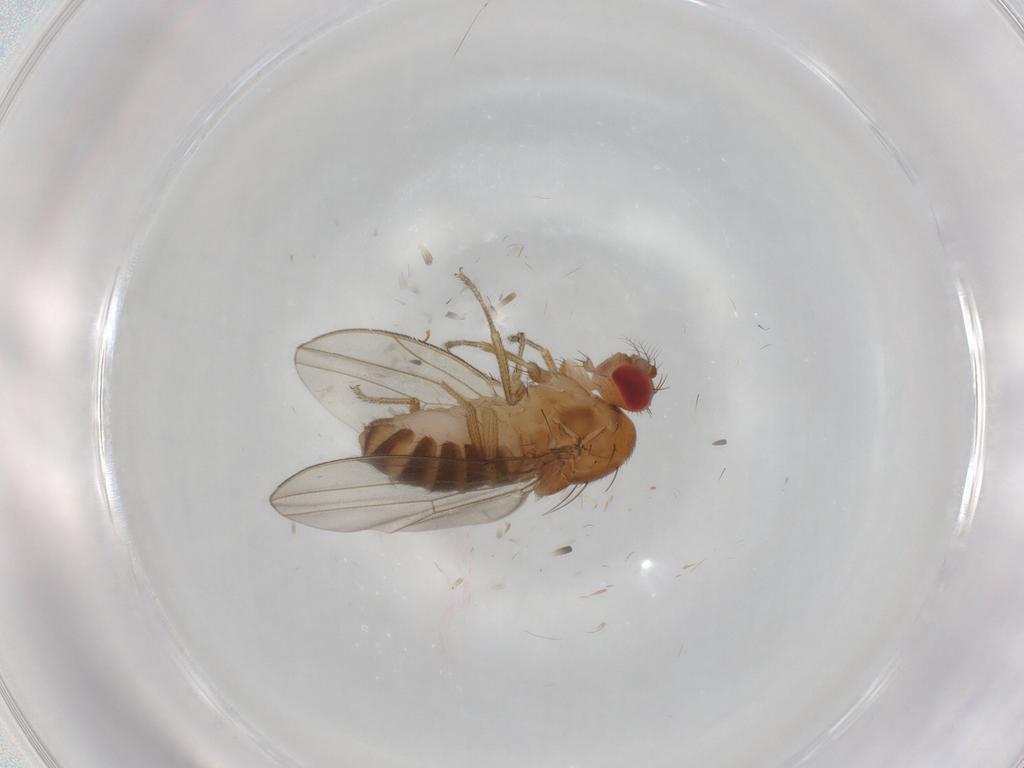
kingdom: Animalia
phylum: Arthropoda
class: Insecta
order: Diptera
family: Drosophilidae
